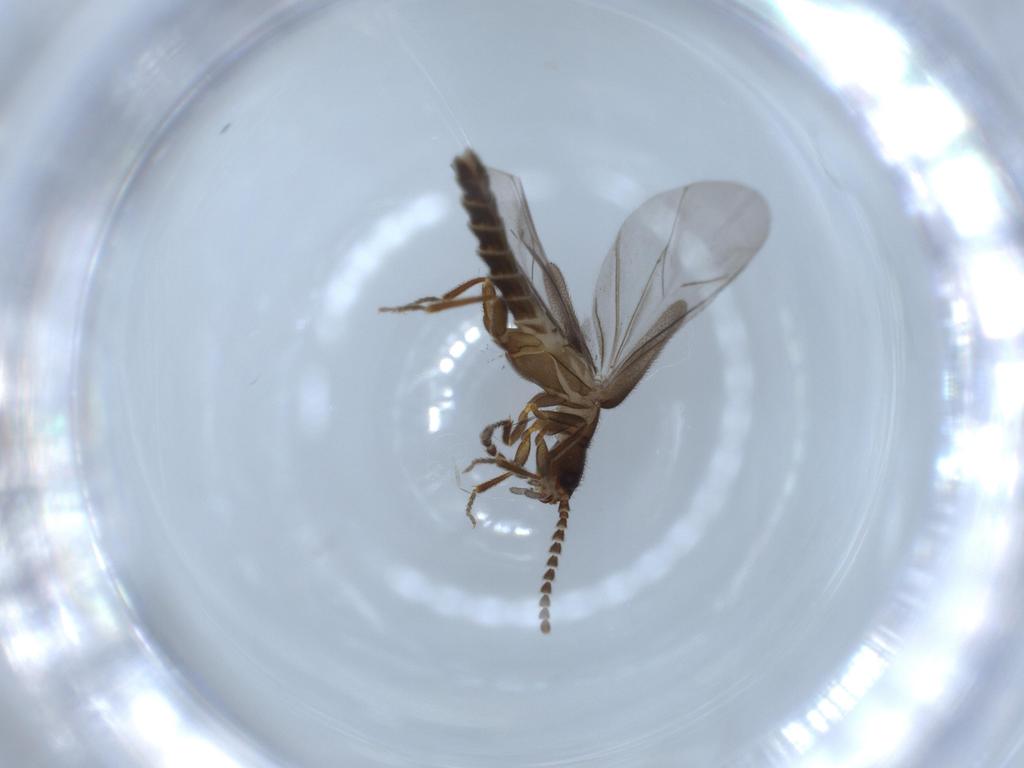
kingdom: Animalia
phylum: Arthropoda
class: Insecta
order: Coleoptera
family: Omethidae
